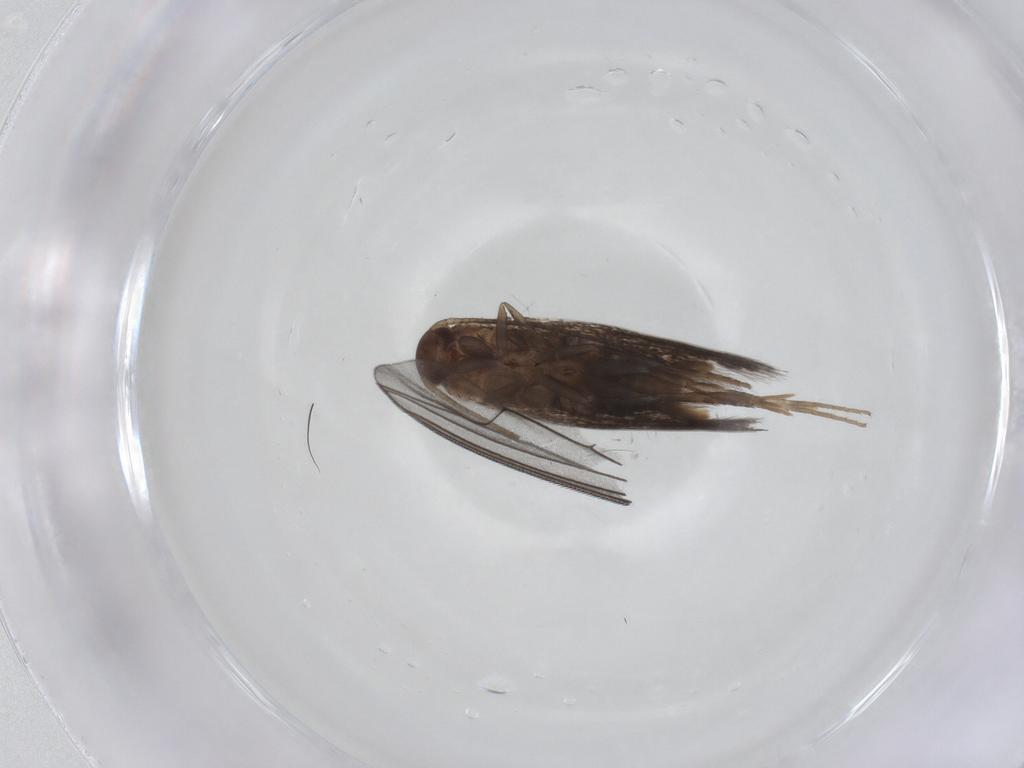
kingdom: Animalia
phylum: Arthropoda
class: Insecta
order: Lepidoptera
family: Elachistidae
